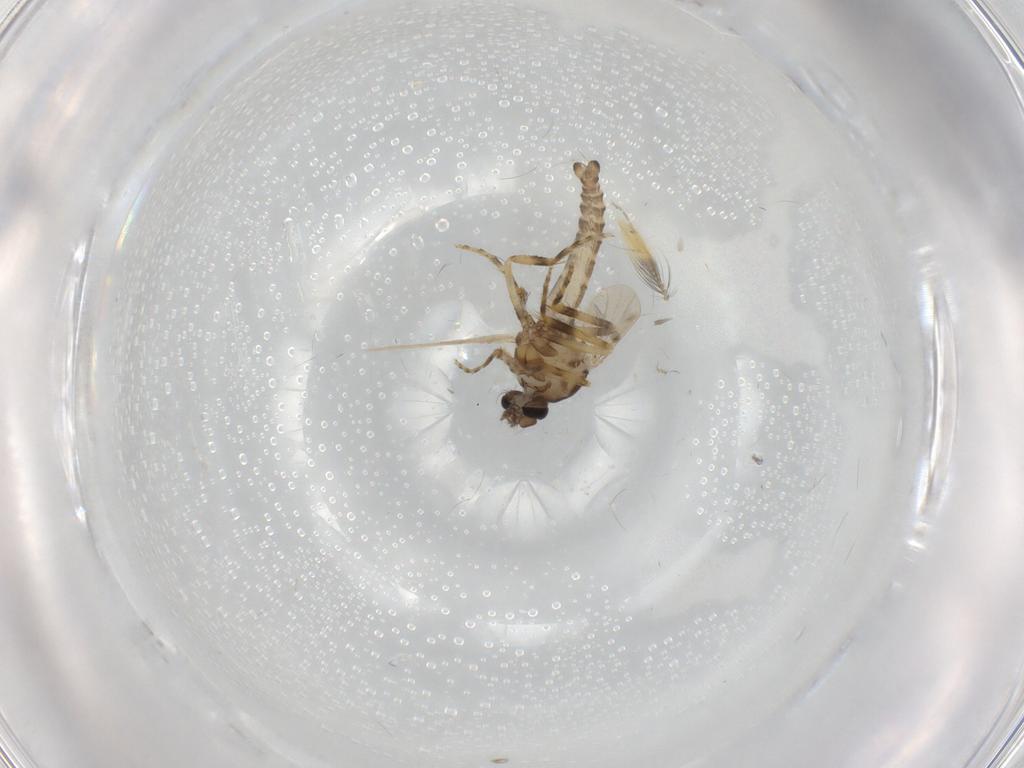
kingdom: Animalia
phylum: Arthropoda
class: Insecta
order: Diptera
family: Ceratopogonidae
